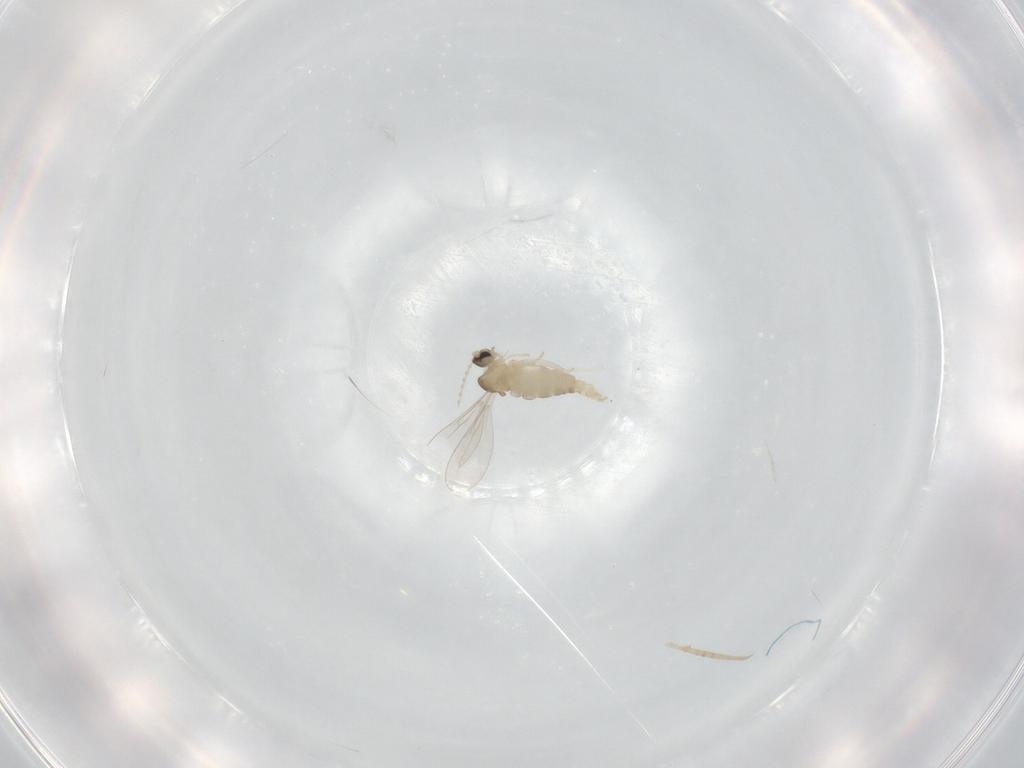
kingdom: Animalia
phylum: Arthropoda
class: Insecta
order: Diptera
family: Cecidomyiidae
